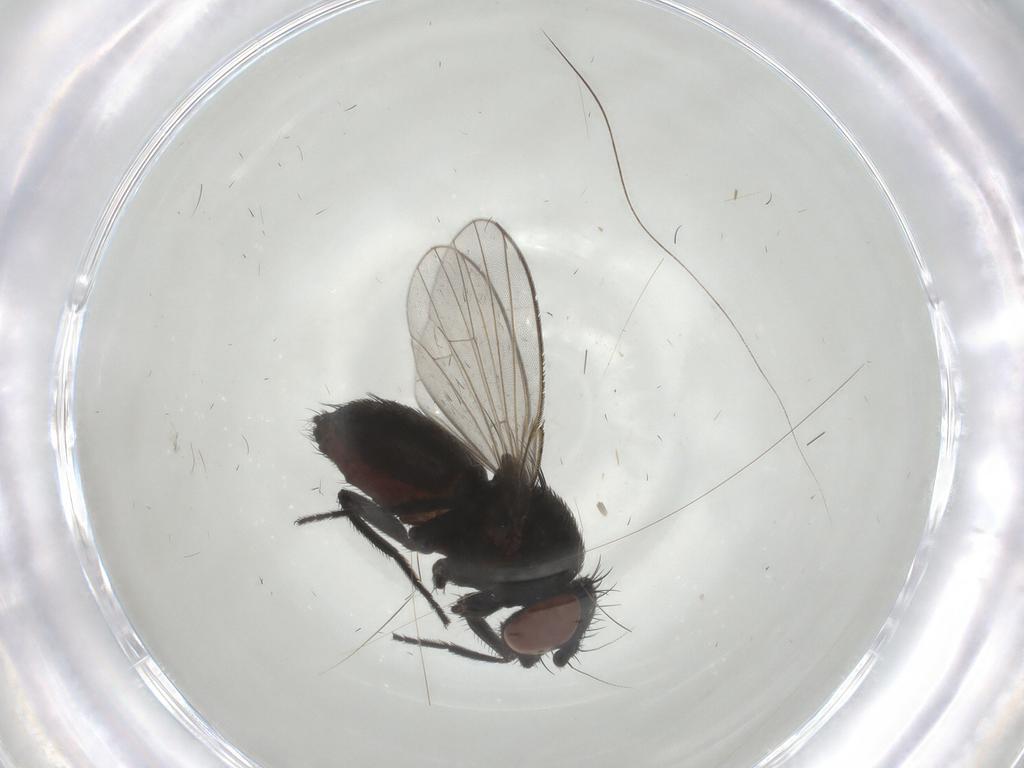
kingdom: Animalia
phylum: Arthropoda
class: Insecta
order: Diptera
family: Milichiidae
